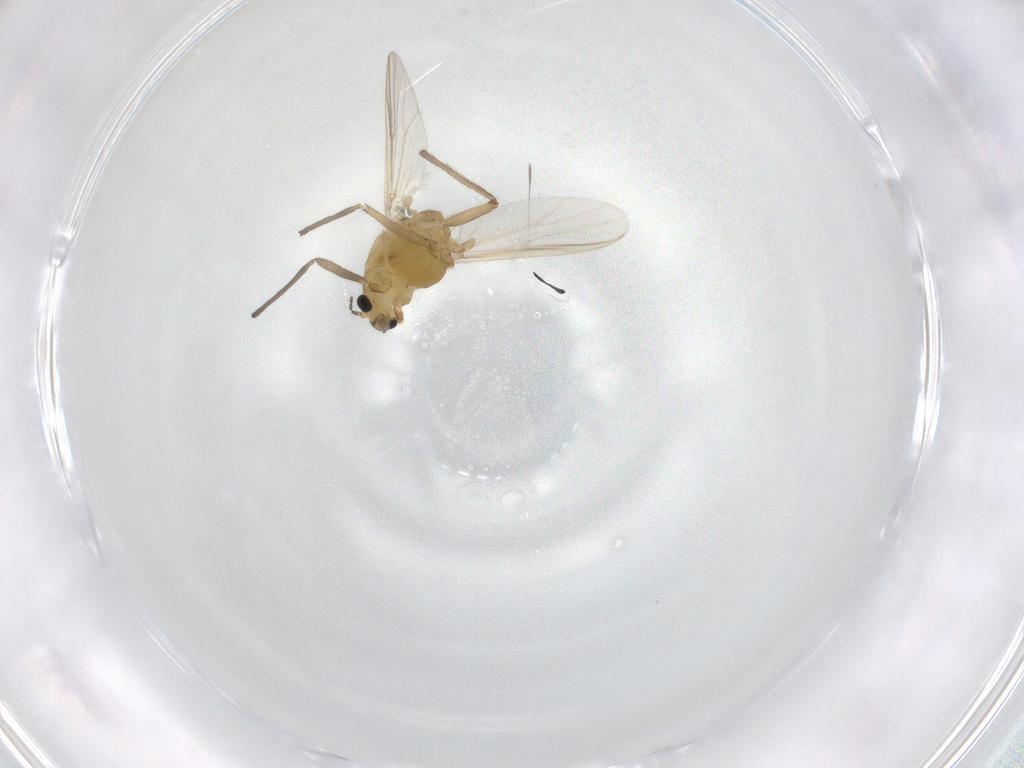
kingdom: Animalia
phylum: Arthropoda
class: Insecta
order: Diptera
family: Chironomidae
